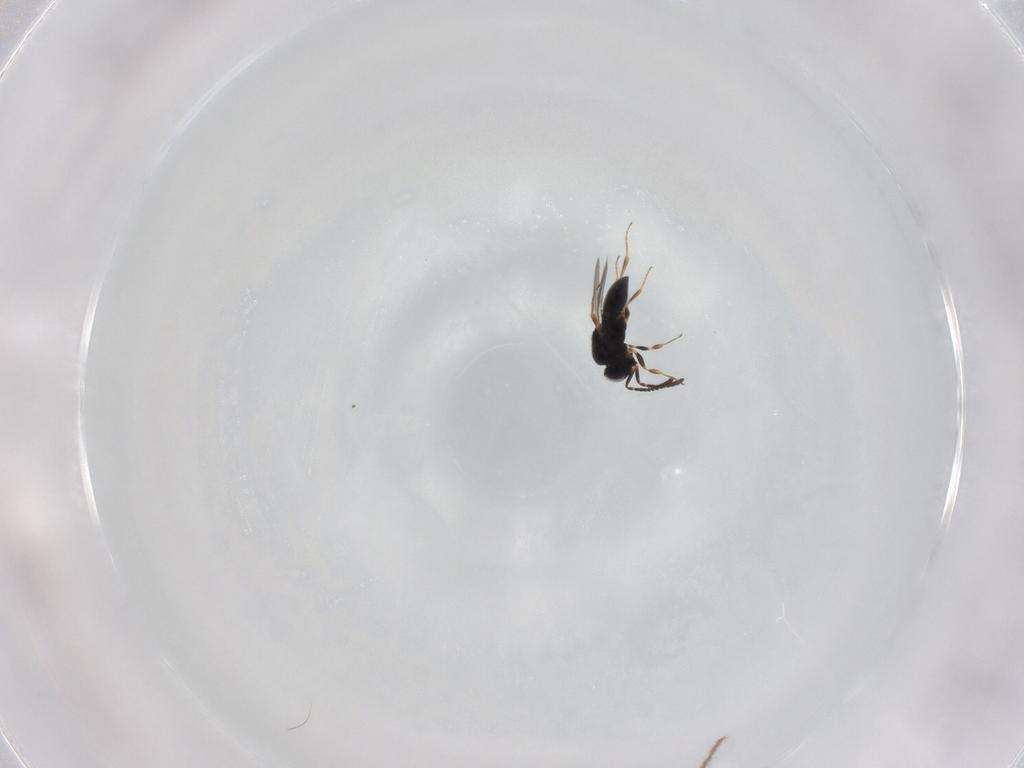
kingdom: Animalia
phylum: Arthropoda
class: Insecta
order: Hymenoptera
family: Scelionidae
